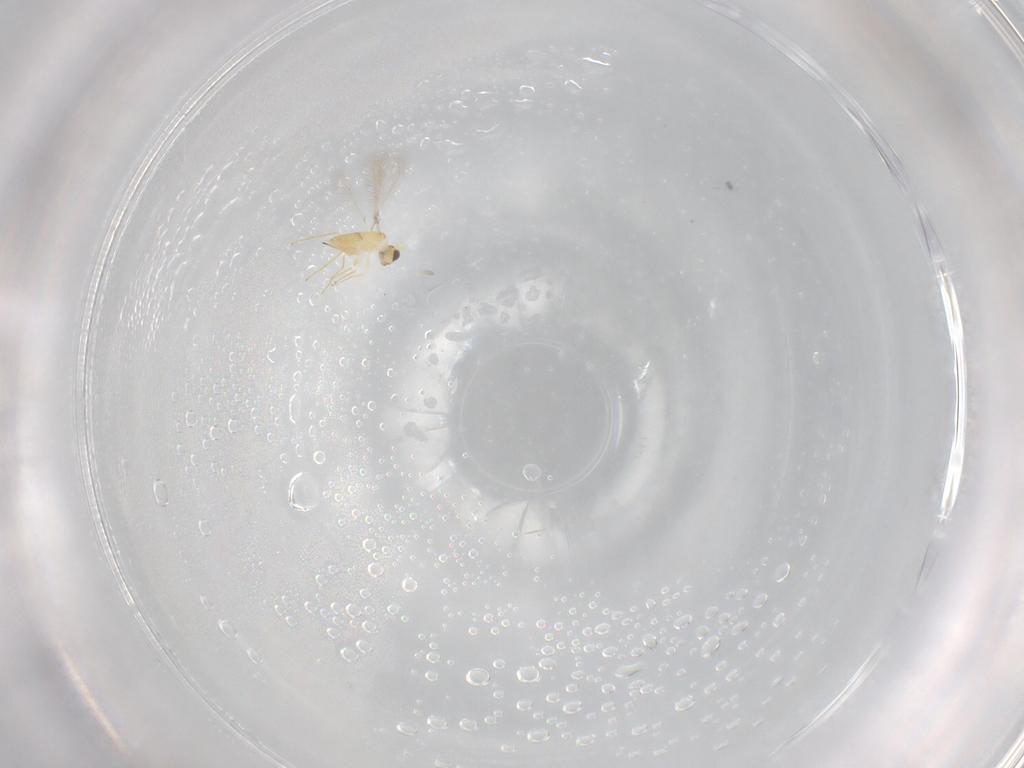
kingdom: Animalia
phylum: Arthropoda
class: Insecta
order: Hymenoptera
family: Mymaridae
